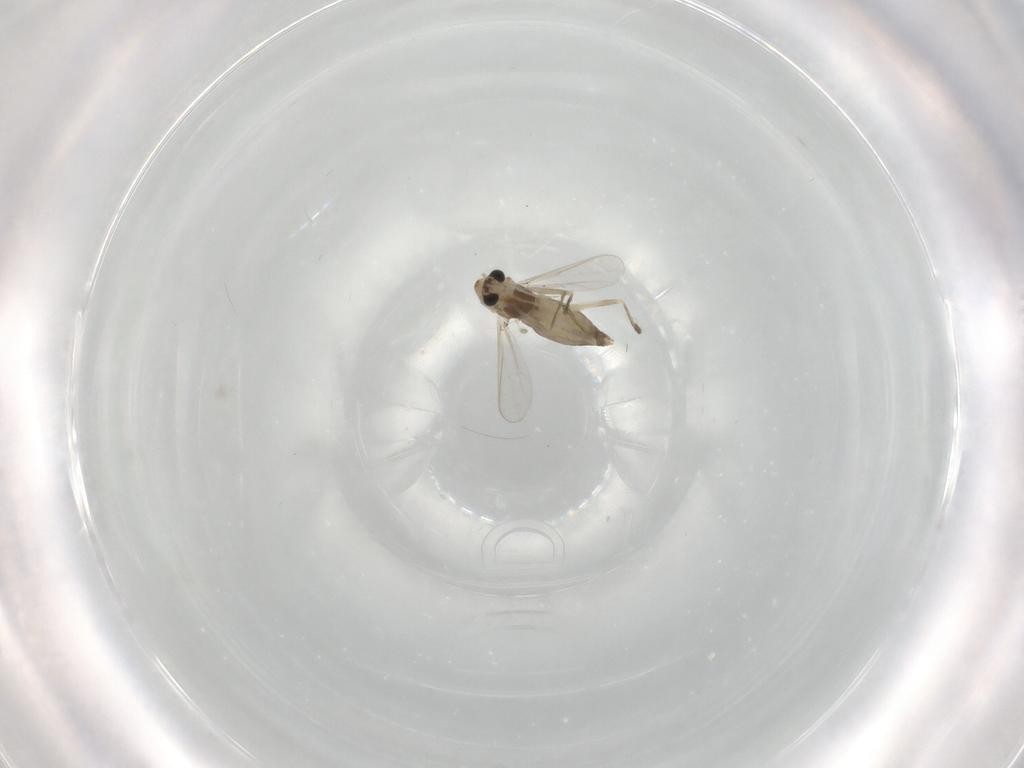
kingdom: Animalia
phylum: Arthropoda
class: Insecta
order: Diptera
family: Chironomidae
